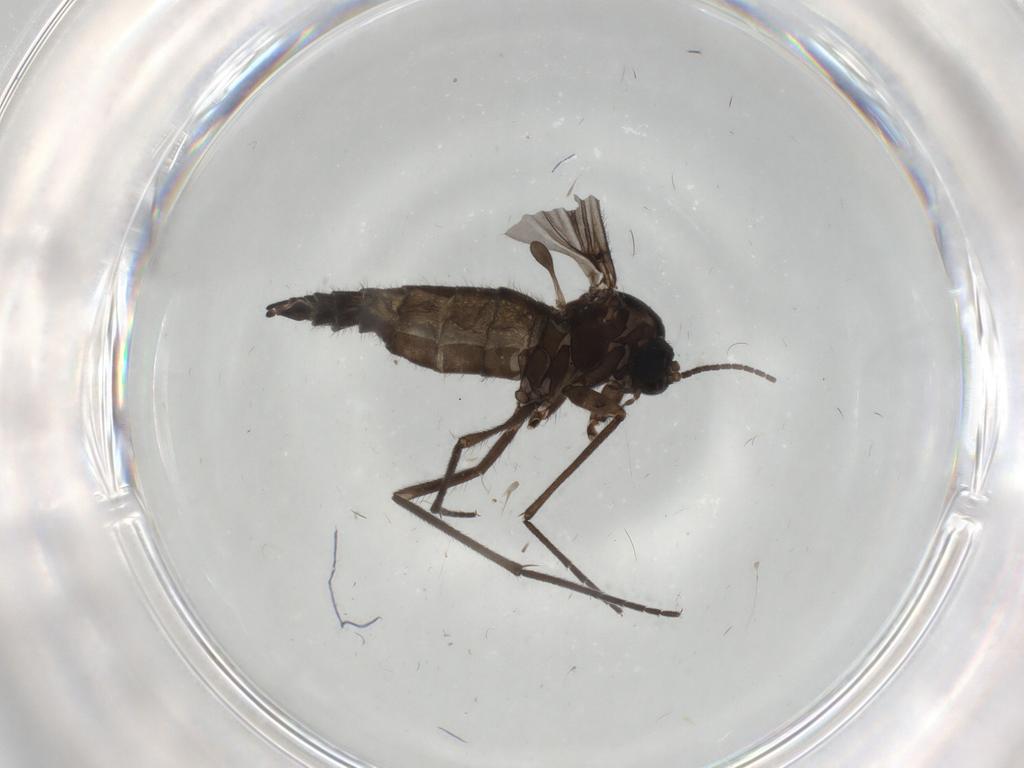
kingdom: Animalia
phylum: Arthropoda
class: Insecta
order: Diptera
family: Sciaridae
